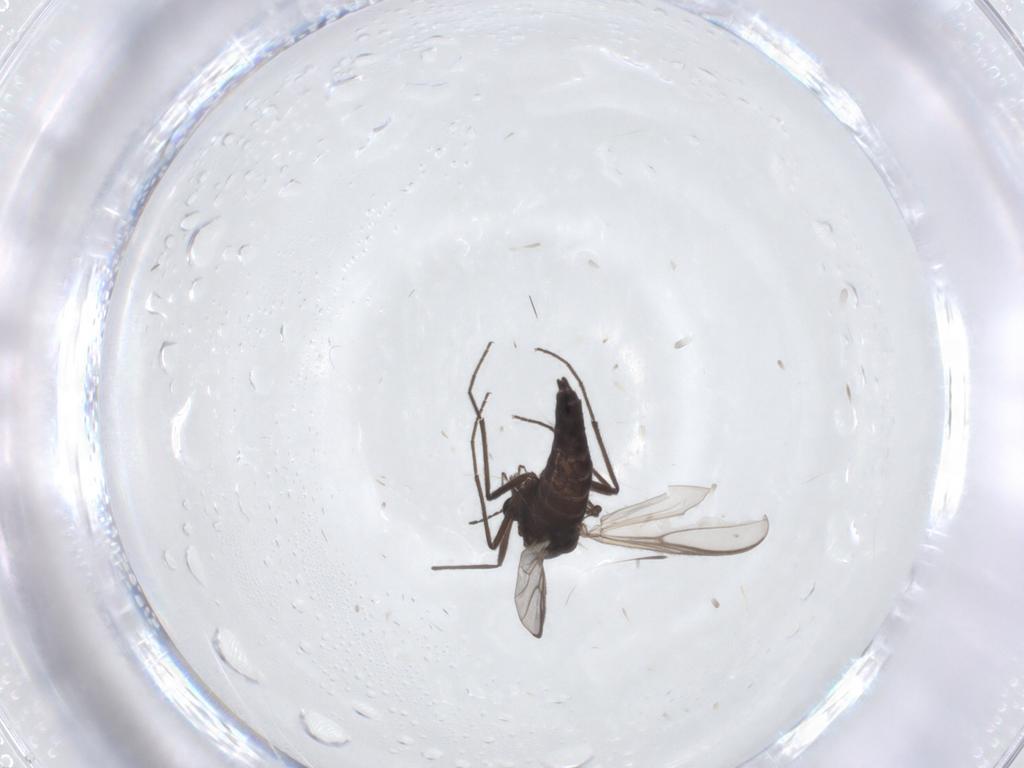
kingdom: Animalia
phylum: Arthropoda
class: Insecta
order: Diptera
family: Chironomidae
